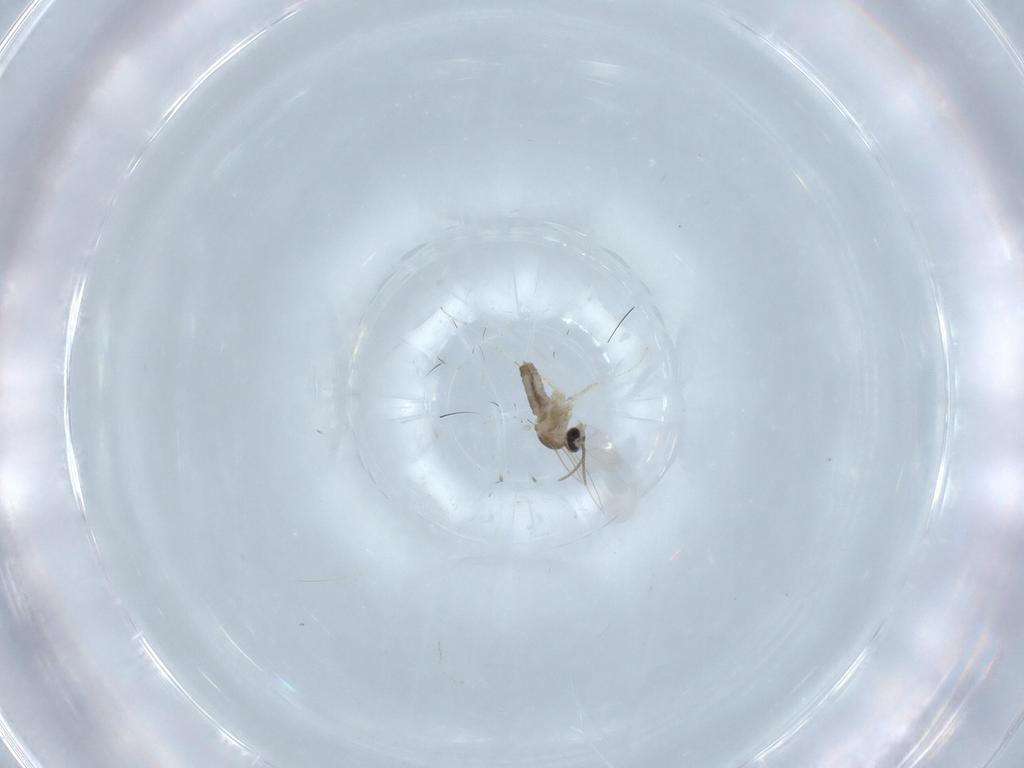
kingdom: Animalia
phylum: Arthropoda
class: Insecta
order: Diptera
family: Cecidomyiidae
